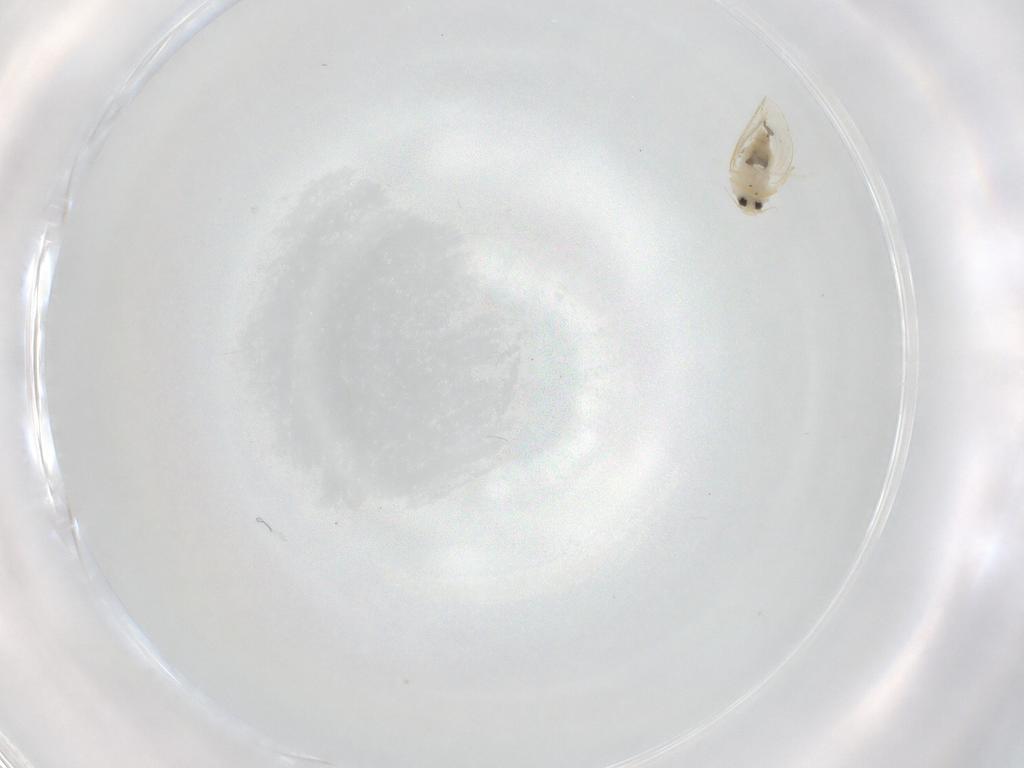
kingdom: Animalia
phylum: Arthropoda
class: Insecta
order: Hemiptera
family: Aleyrodidae
